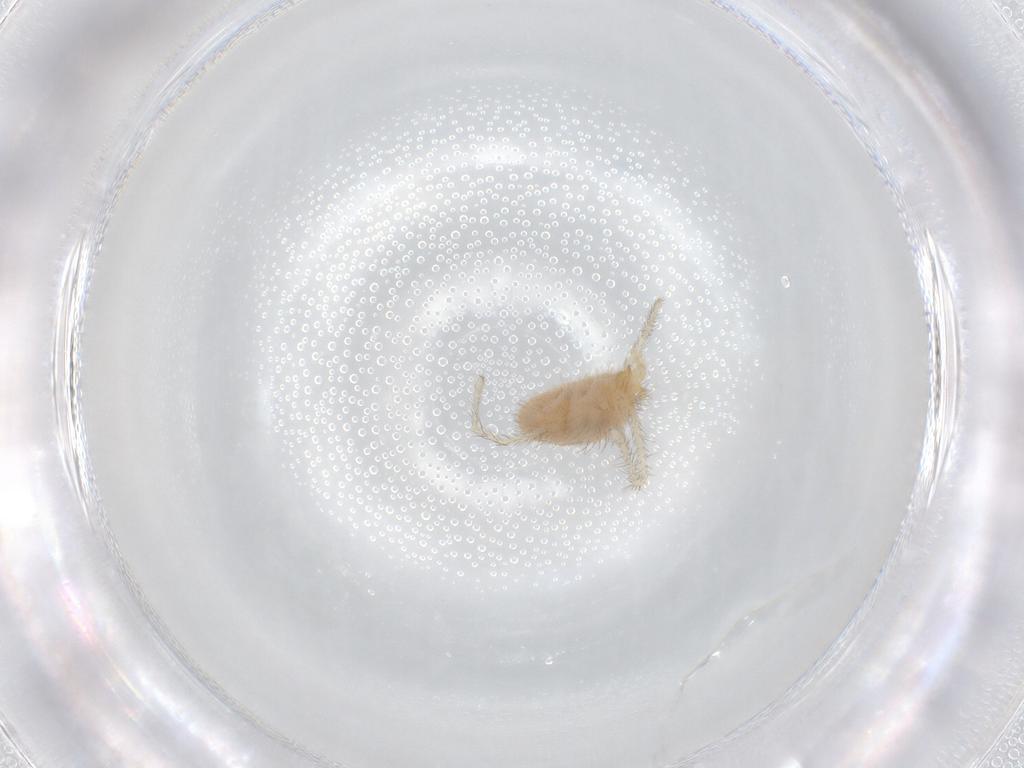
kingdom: Animalia
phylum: Arthropoda
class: Arachnida
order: Trombidiformes
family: Erythraeidae
